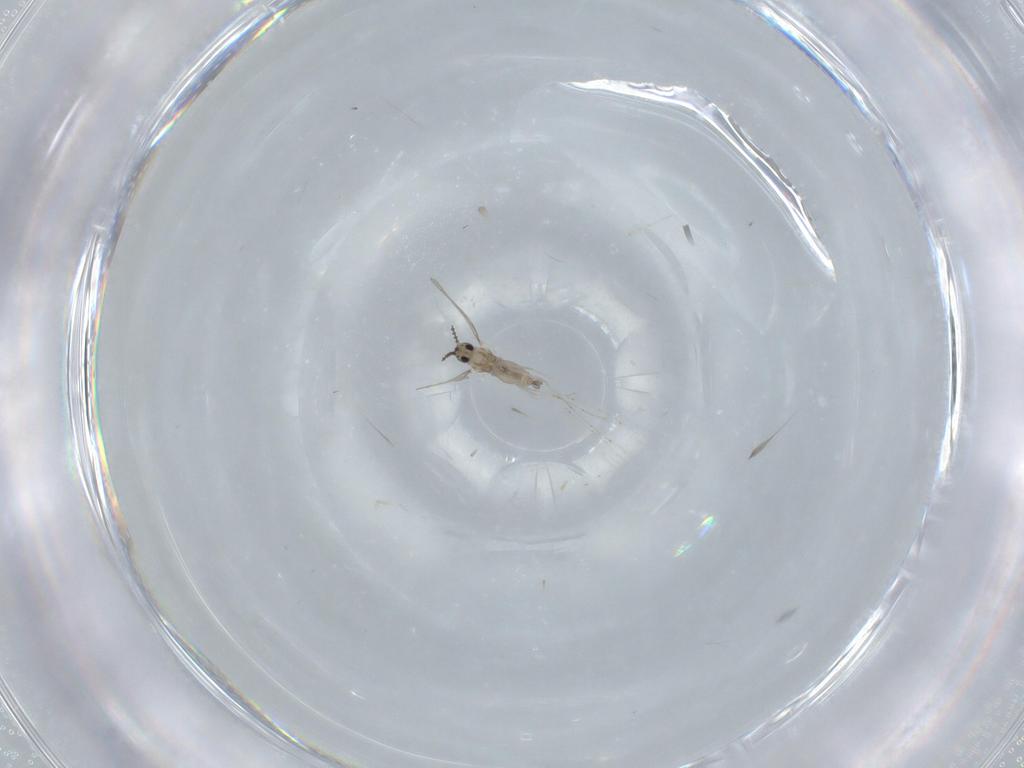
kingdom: Animalia
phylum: Arthropoda
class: Insecta
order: Diptera
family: Cecidomyiidae
